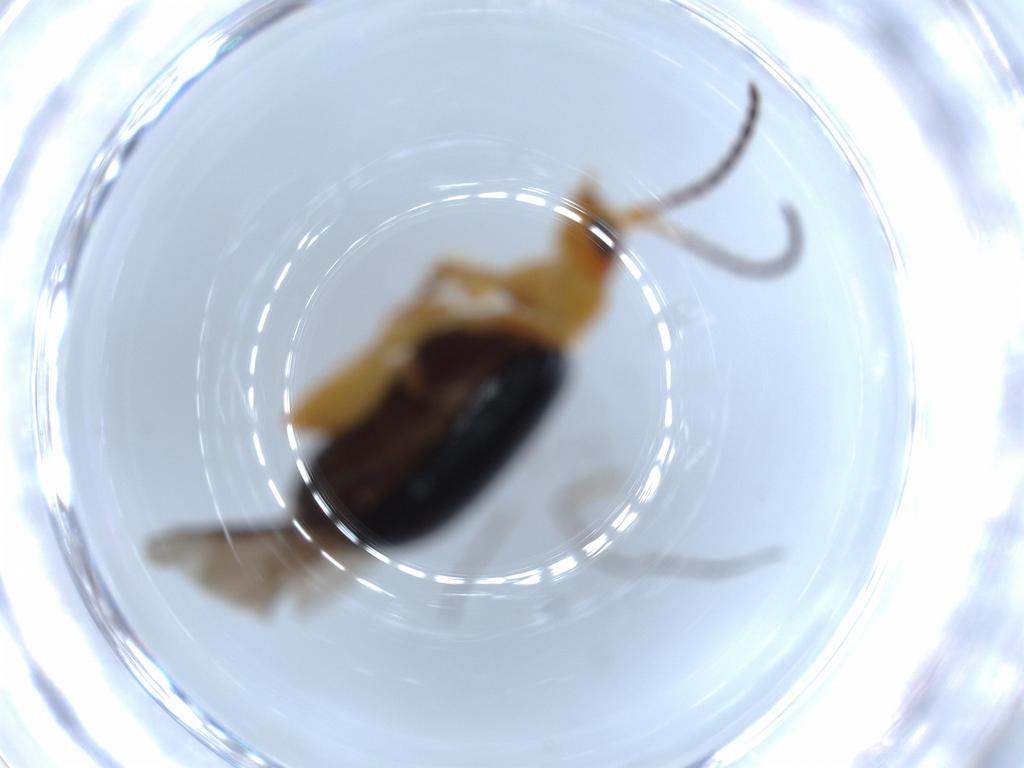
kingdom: Animalia
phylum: Arthropoda
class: Insecta
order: Coleoptera
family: Chrysomelidae
